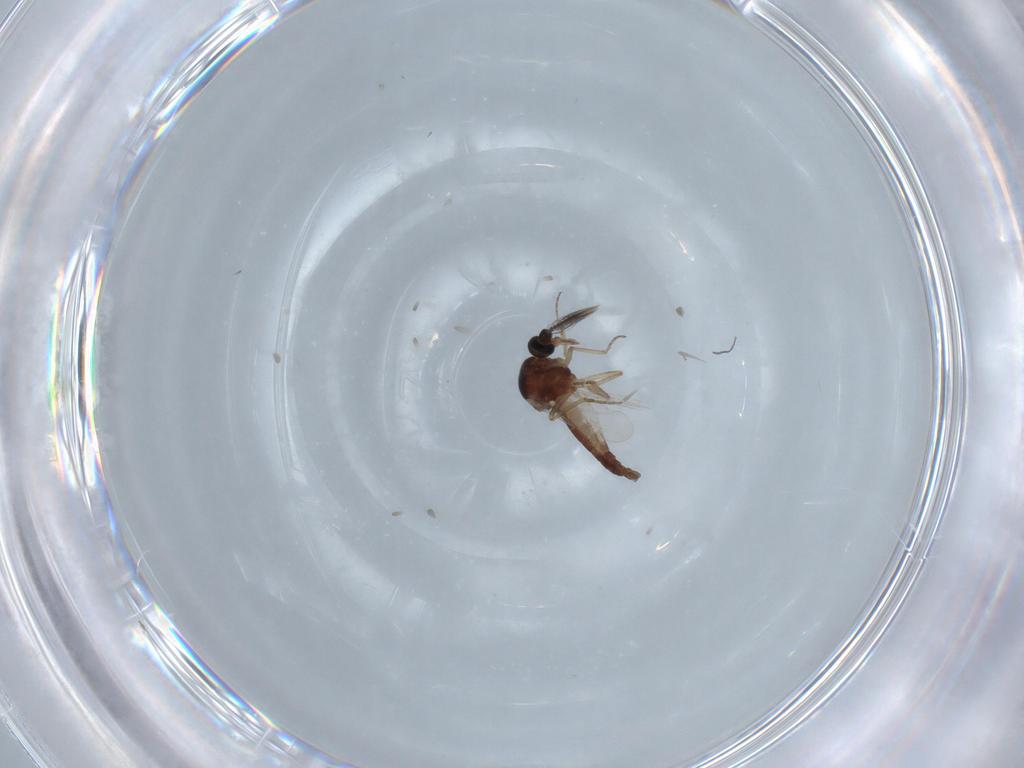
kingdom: Animalia
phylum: Arthropoda
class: Insecta
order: Diptera
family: Ceratopogonidae
